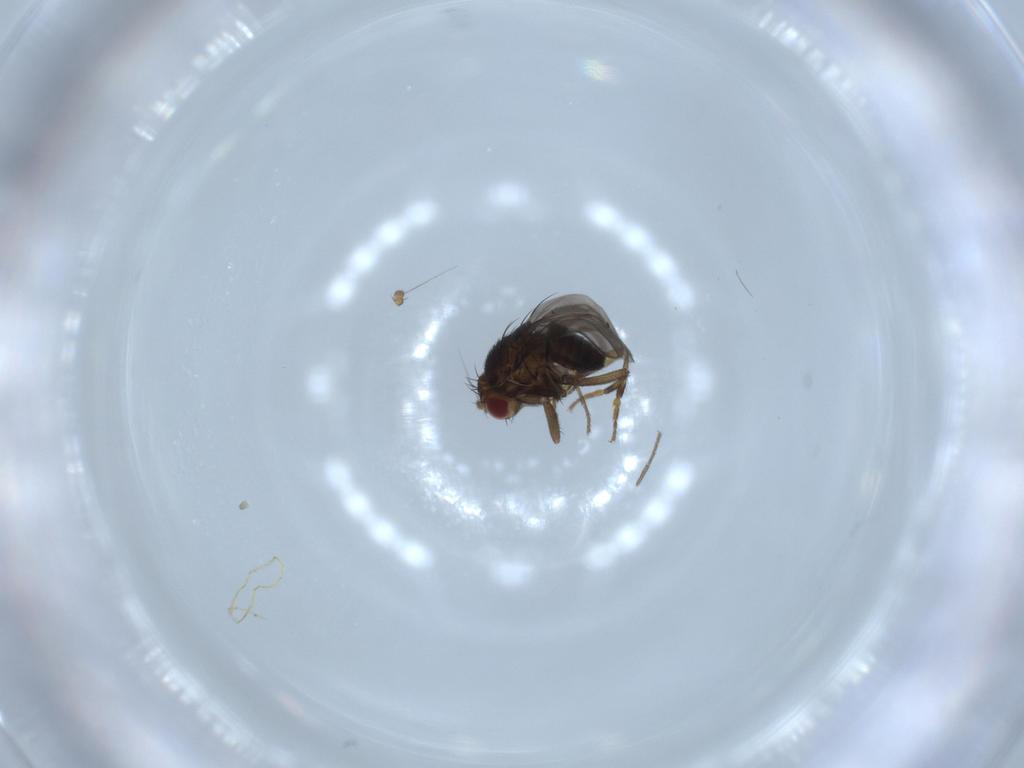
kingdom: Animalia
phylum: Arthropoda
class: Insecta
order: Diptera
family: Sphaeroceridae
